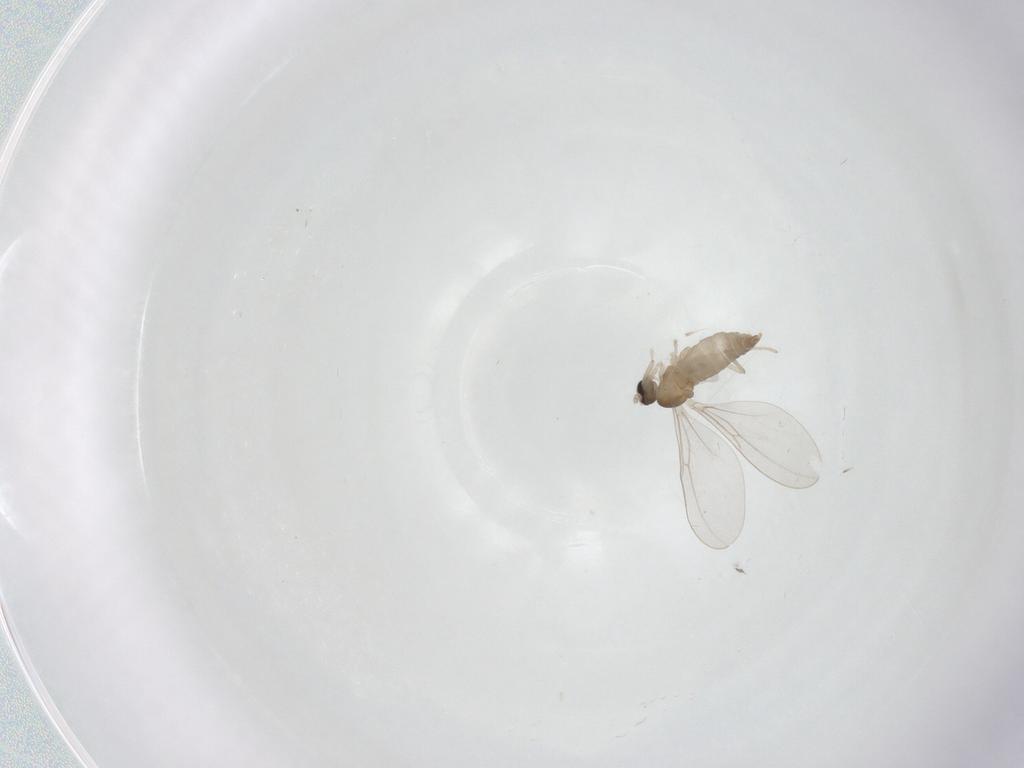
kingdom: Animalia
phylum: Arthropoda
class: Insecta
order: Diptera
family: Cecidomyiidae
